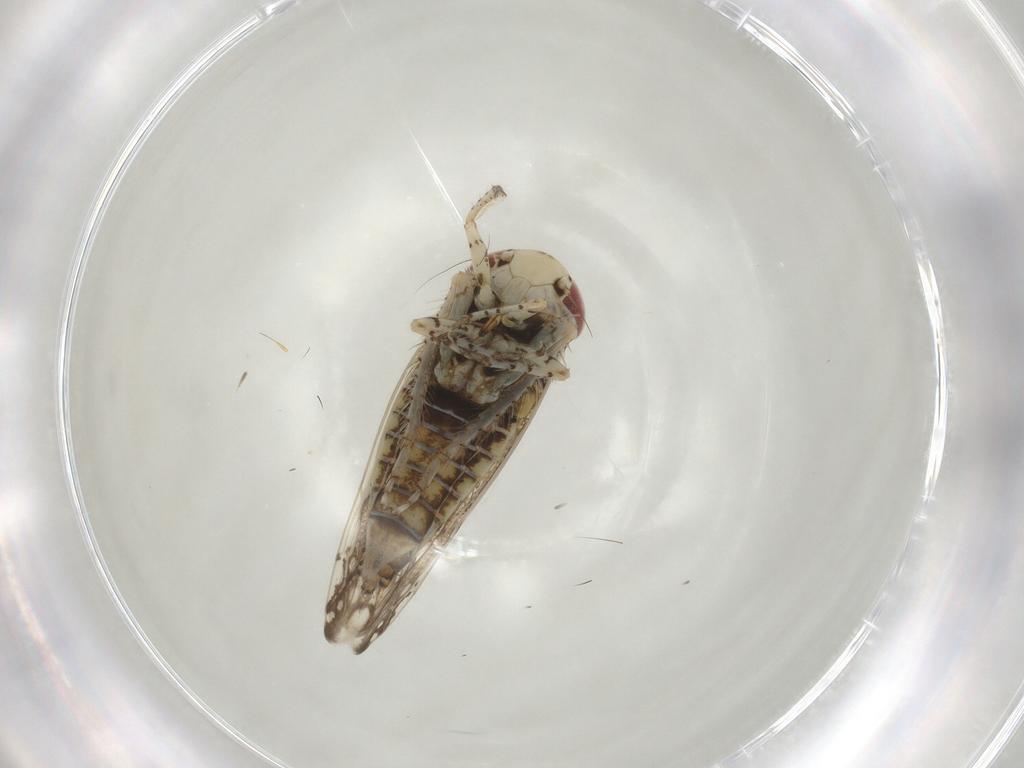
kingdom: Animalia
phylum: Arthropoda
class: Insecta
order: Hemiptera
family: Cicadellidae
